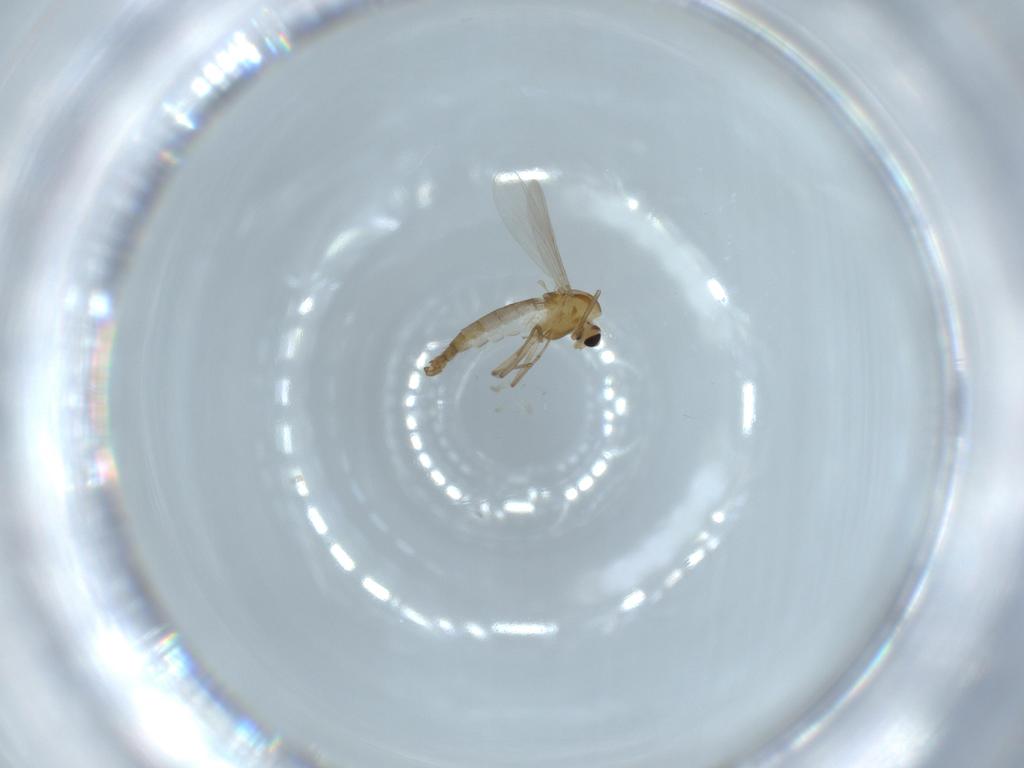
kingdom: Animalia
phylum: Arthropoda
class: Insecta
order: Diptera
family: Chironomidae
